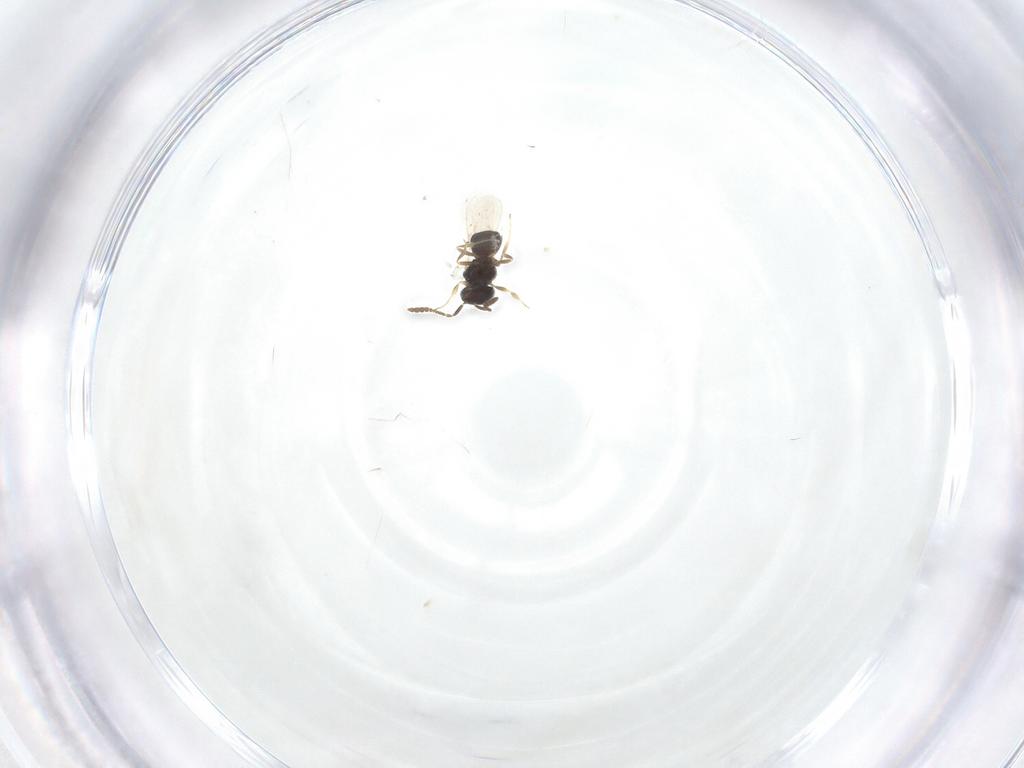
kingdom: Animalia
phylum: Arthropoda
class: Insecta
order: Hymenoptera
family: Scelionidae
